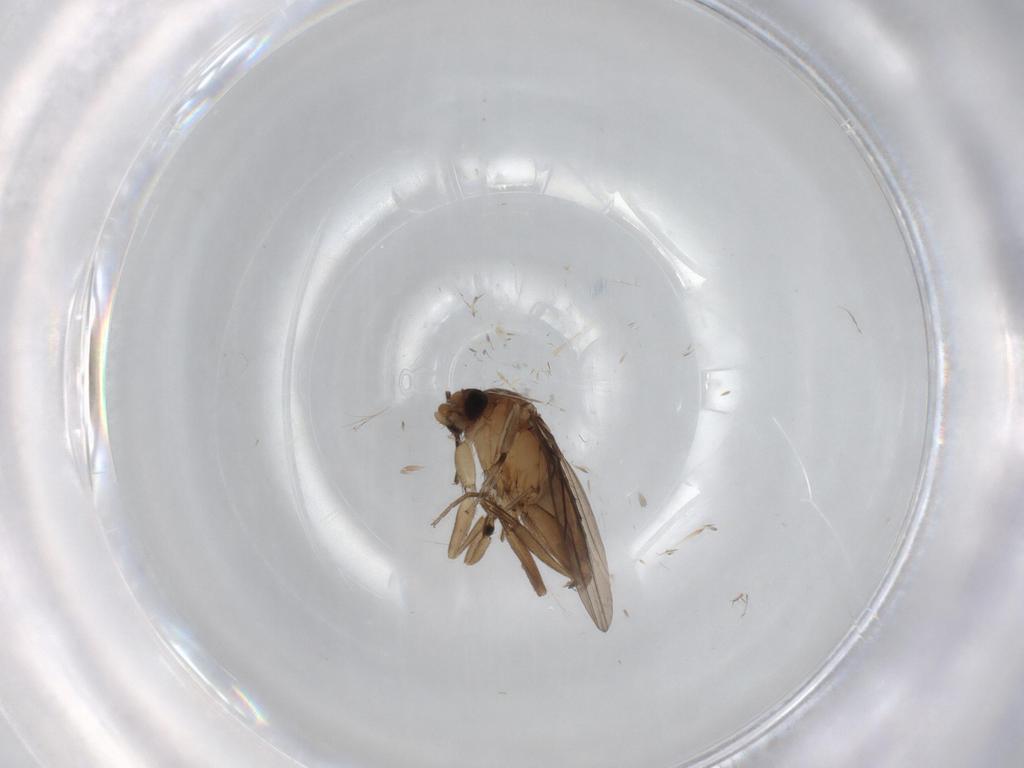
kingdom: Animalia
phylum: Arthropoda
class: Insecta
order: Diptera
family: Sciaridae
